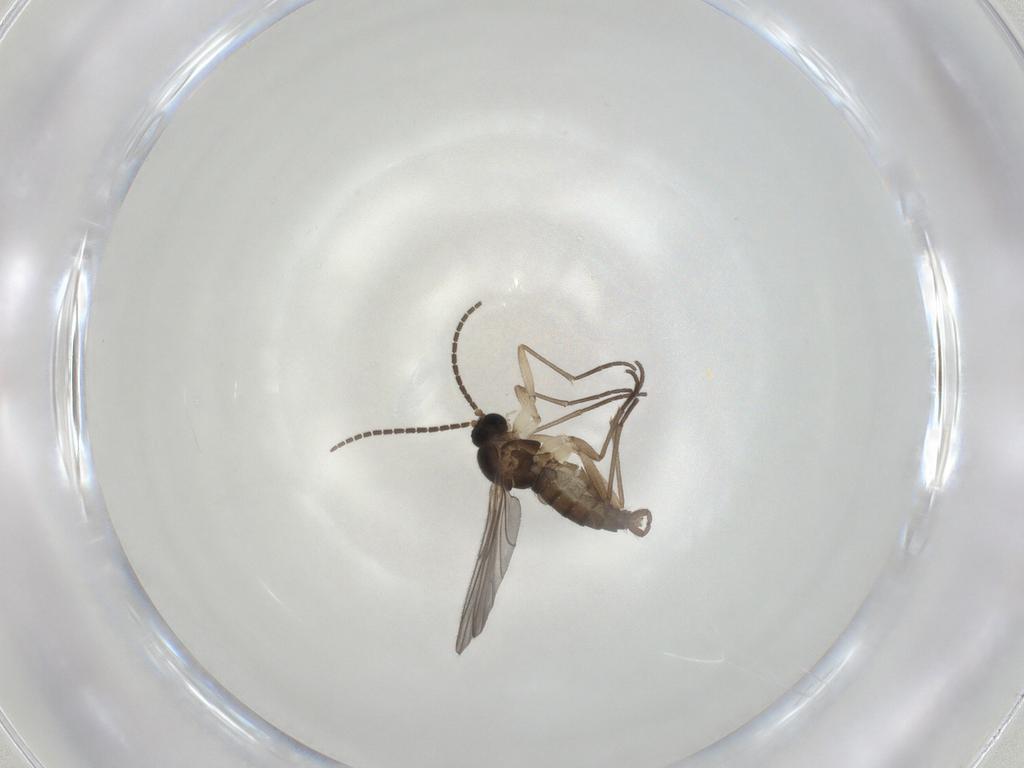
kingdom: Animalia
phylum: Arthropoda
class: Insecta
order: Diptera
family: Sciaridae
